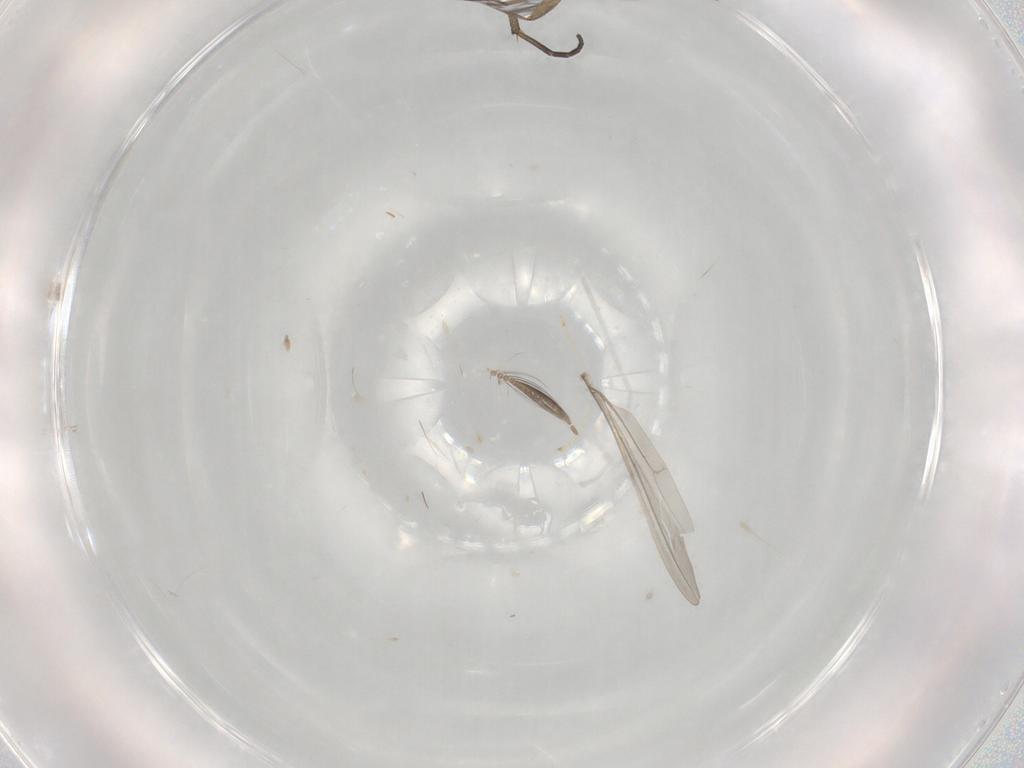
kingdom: Animalia
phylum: Arthropoda
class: Insecta
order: Diptera
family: Sciaridae
